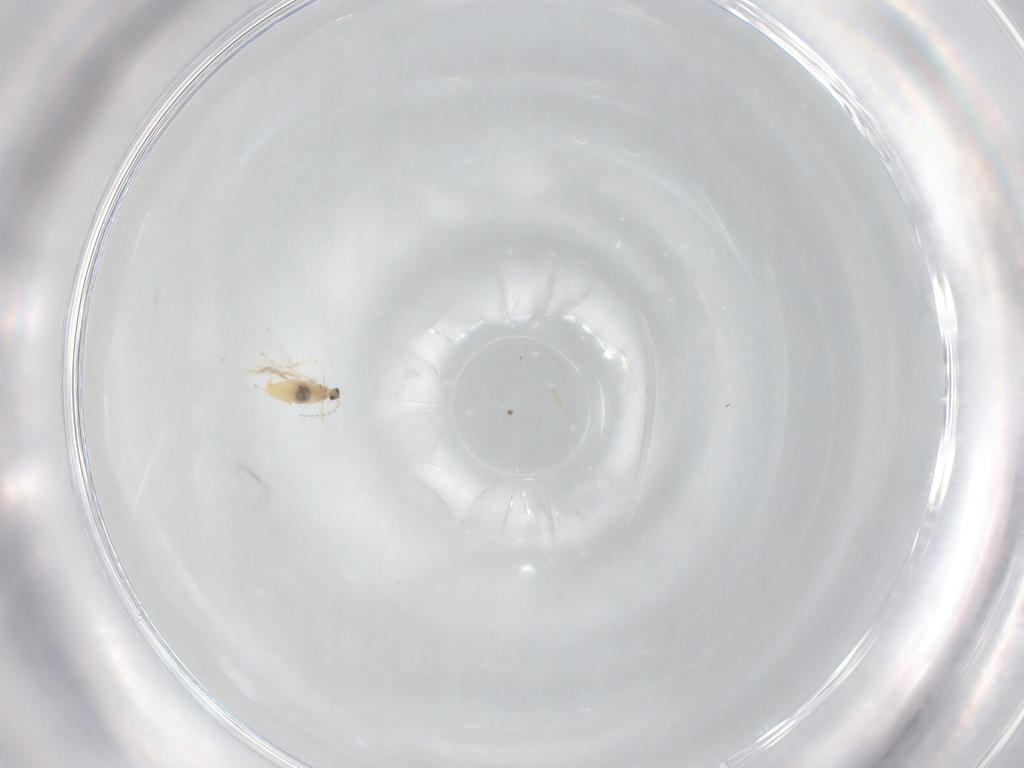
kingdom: Animalia
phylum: Arthropoda
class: Insecta
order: Diptera
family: Cecidomyiidae
